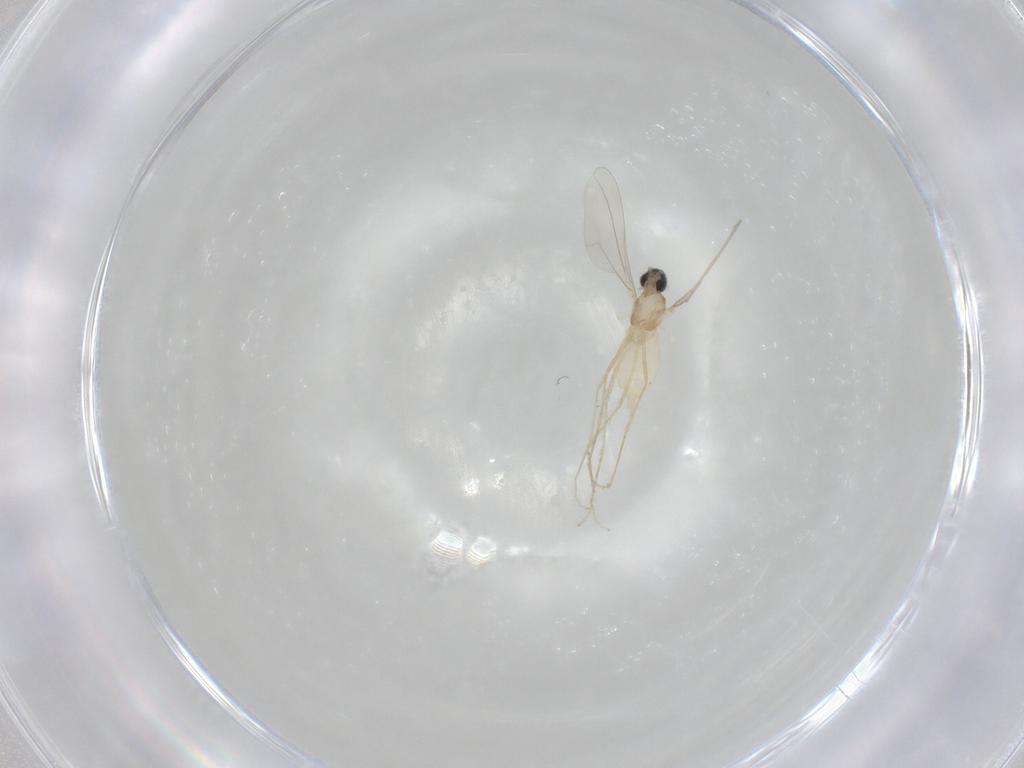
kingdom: Animalia
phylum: Arthropoda
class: Insecta
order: Diptera
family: Cecidomyiidae
